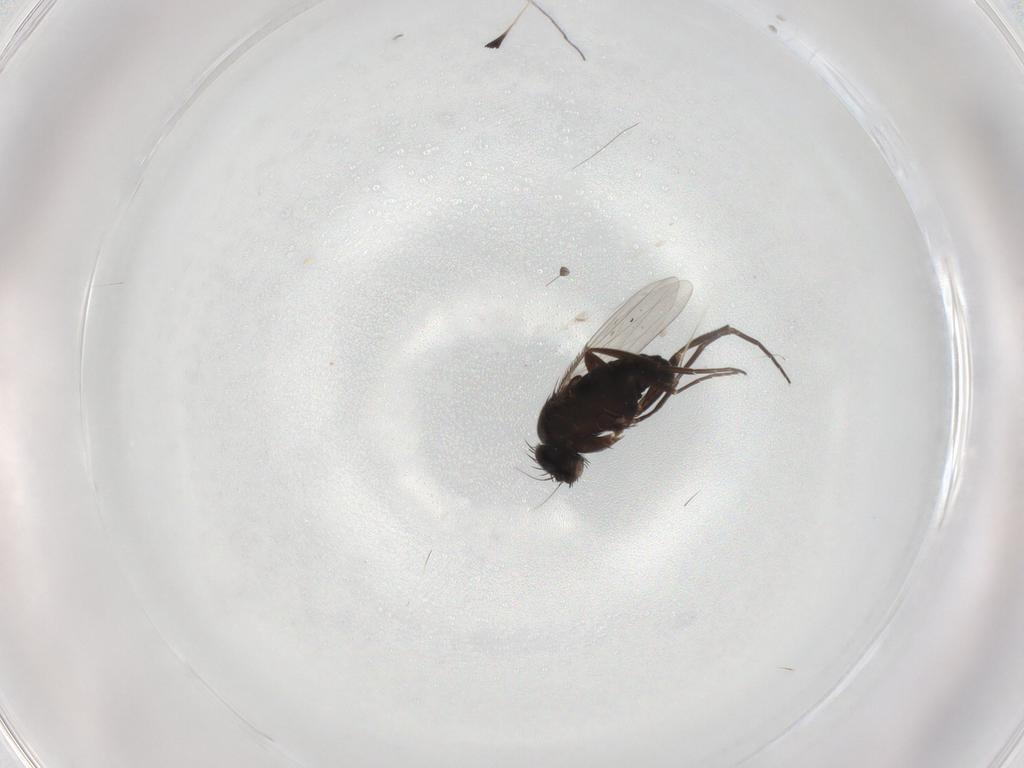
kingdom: Animalia
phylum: Arthropoda
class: Insecta
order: Diptera
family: Phoridae
